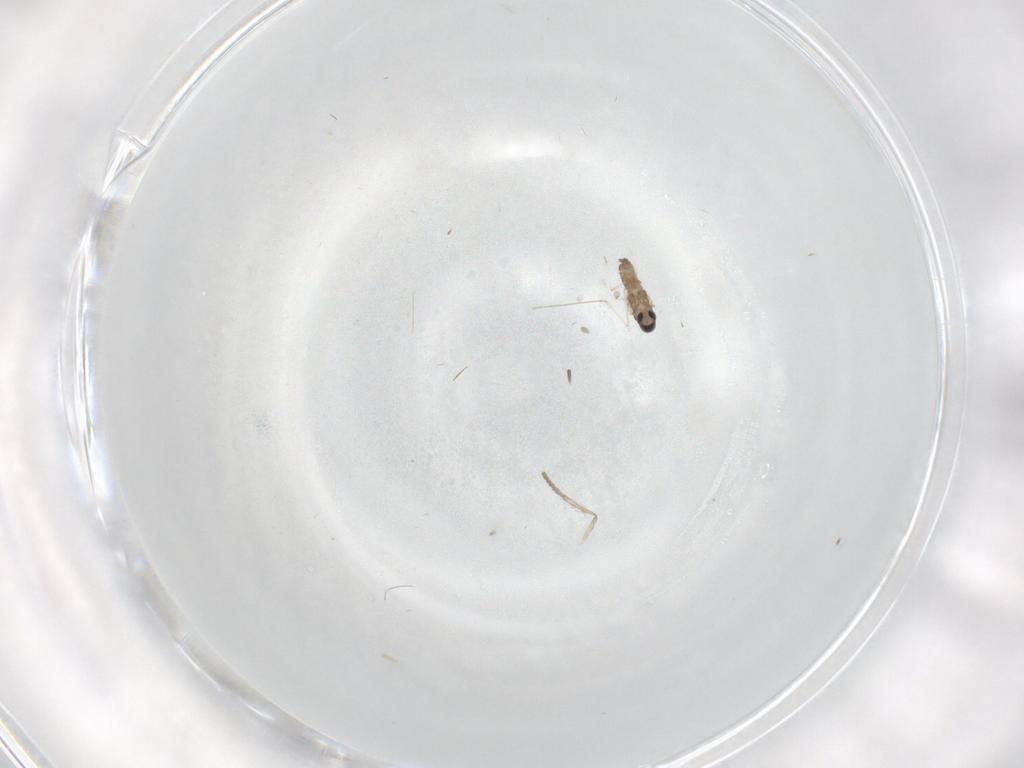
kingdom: Animalia
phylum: Arthropoda
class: Insecta
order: Diptera
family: Cecidomyiidae
